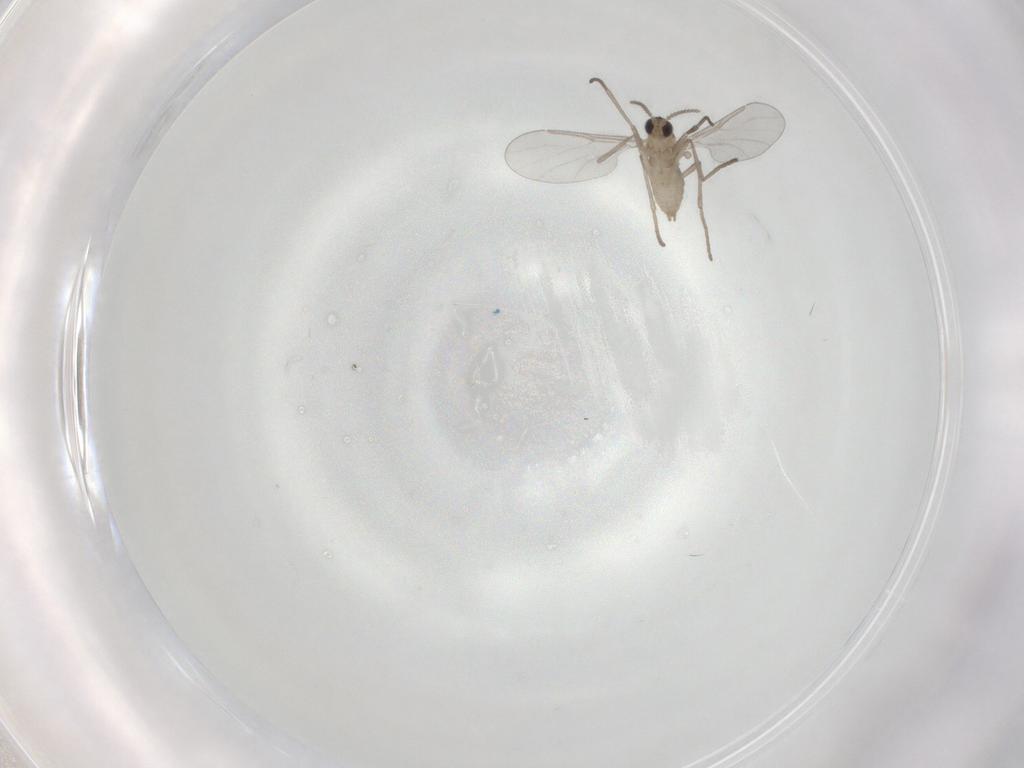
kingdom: Animalia
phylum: Arthropoda
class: Insecta
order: Diptera
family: Cecidomyiidae
